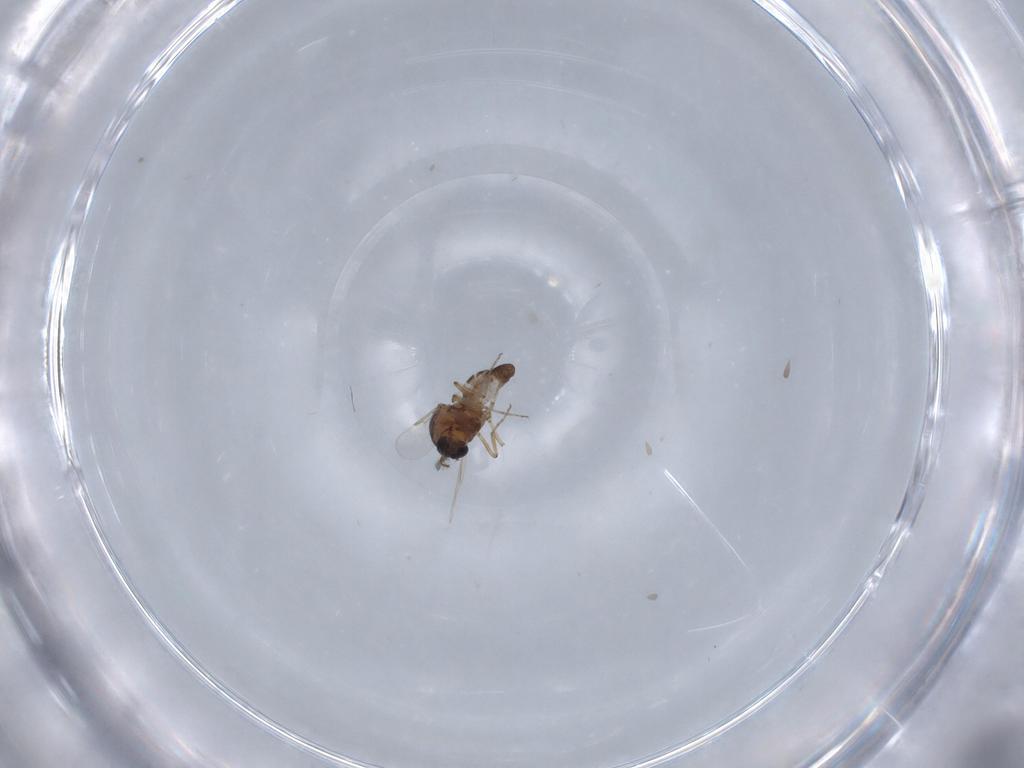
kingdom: Animalia
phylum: Arthropoda
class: Insecta
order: Diptera
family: Ceratopogonidae
